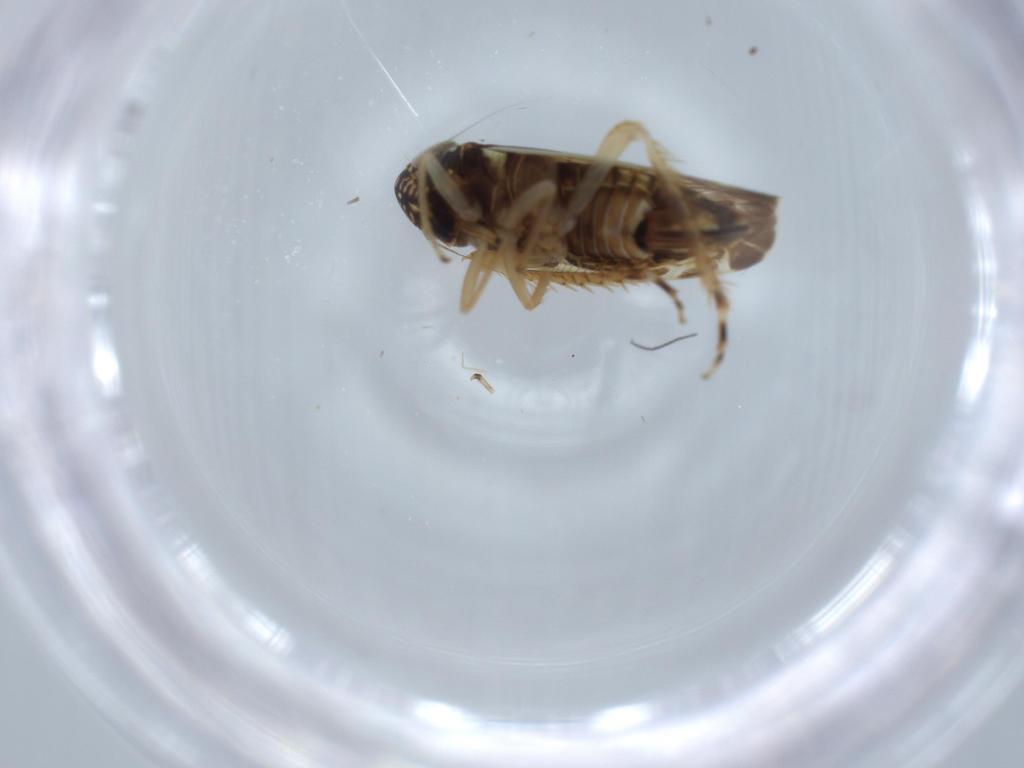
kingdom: Animalia
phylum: Arthropoda
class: Insecta
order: Hemiptera
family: Cicadellidae
